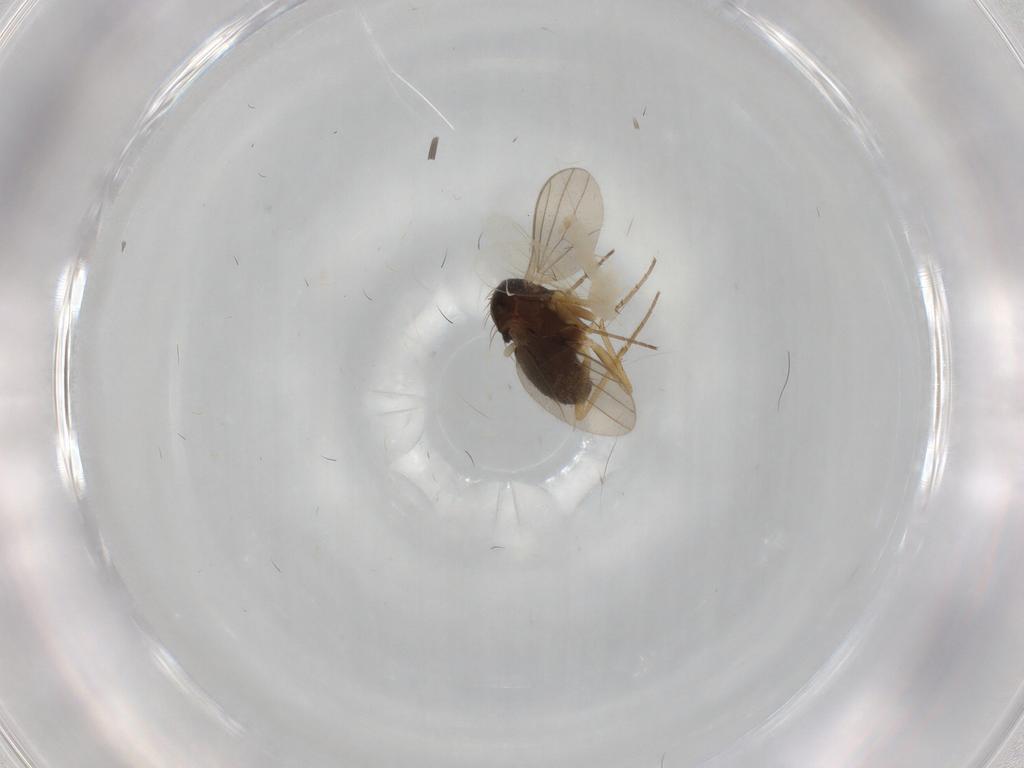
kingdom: Animalia
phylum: Arthropoda
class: Insecta
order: Diptera
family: Dolichopodidae
